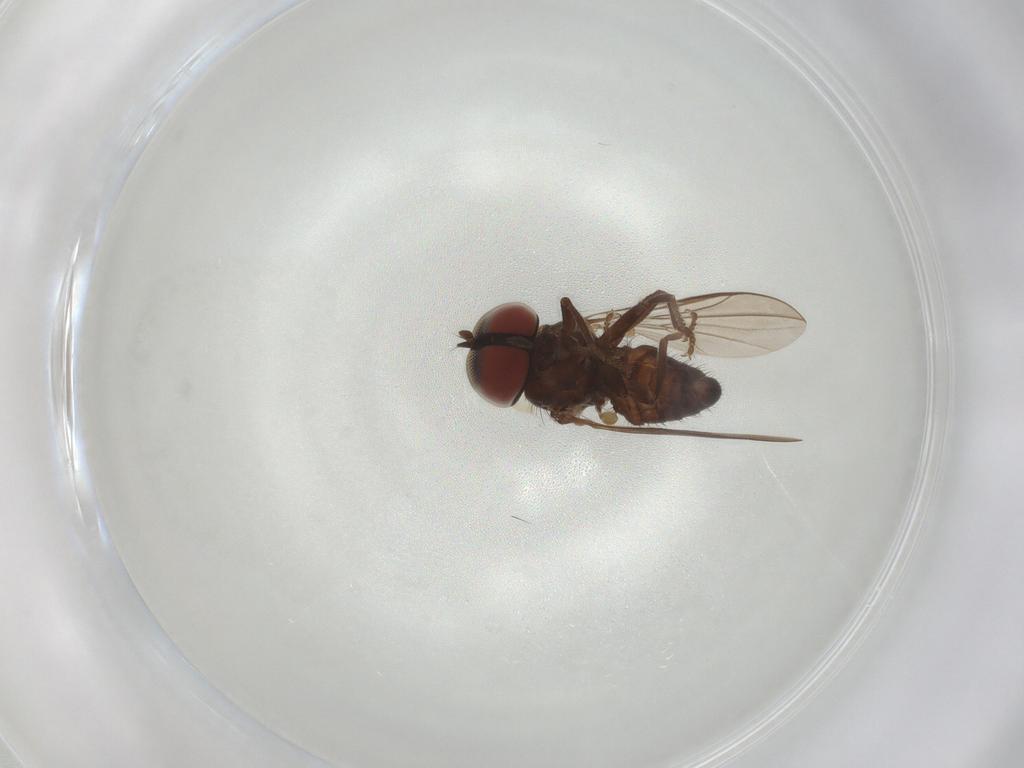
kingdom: Animalia
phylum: Arthropoda
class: Insecta
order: Diptera
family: Pipunculidae
